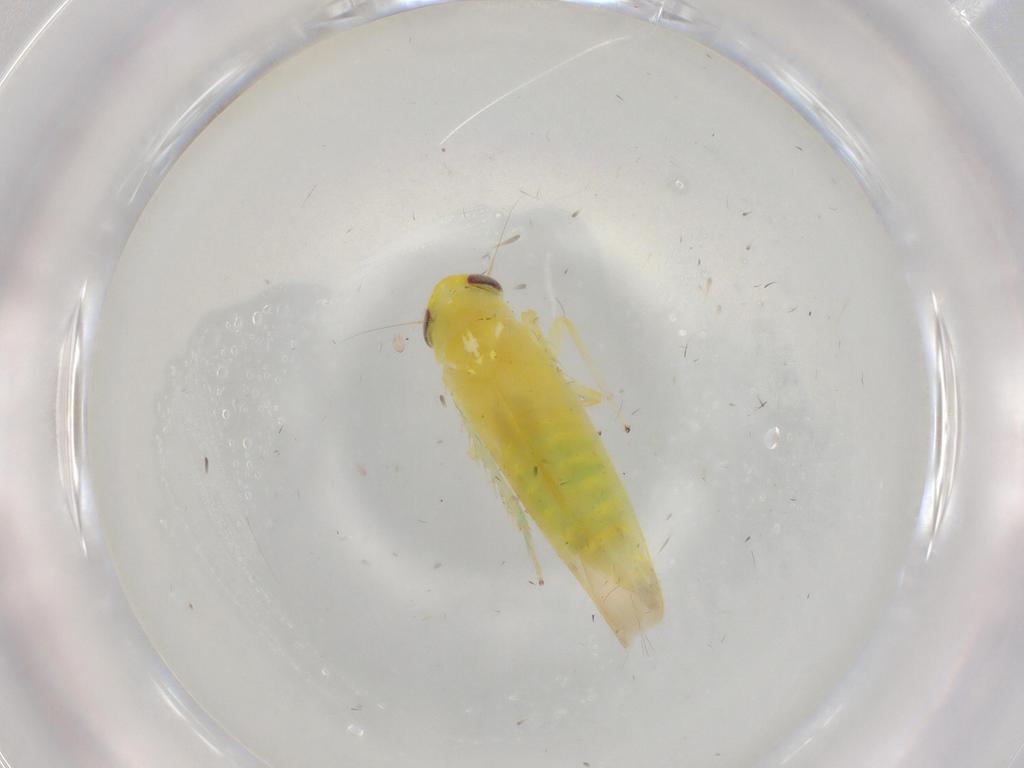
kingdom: Animalia
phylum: Arthropoda
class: Insecta
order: Hemiptera
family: Cicadellidae
